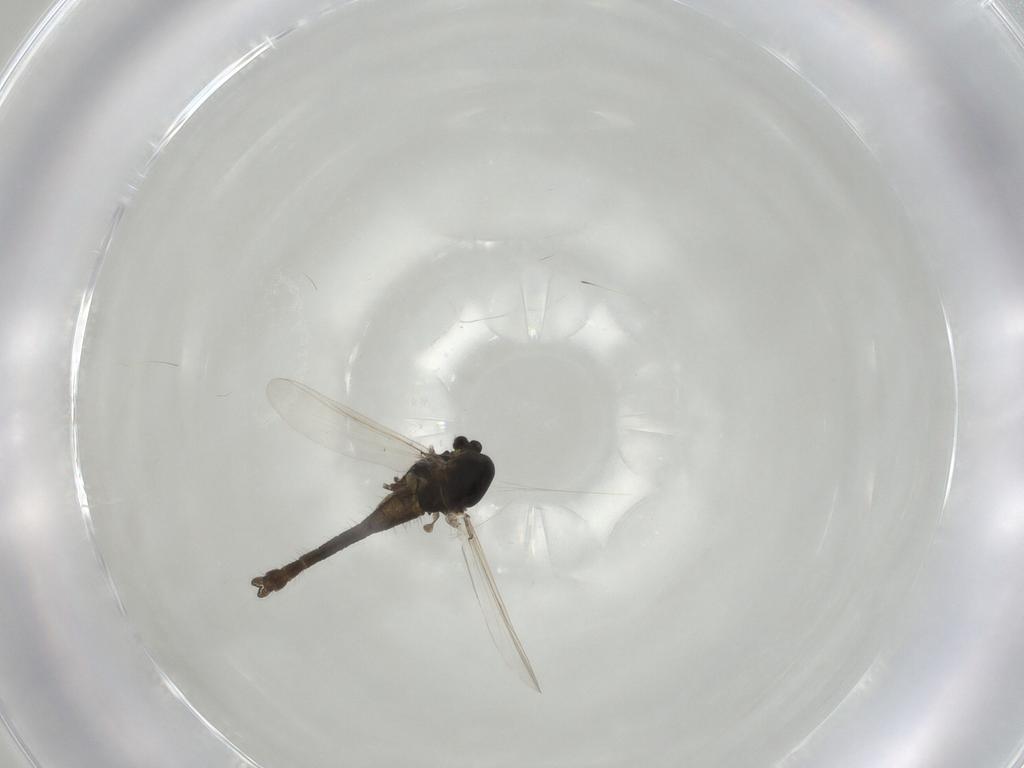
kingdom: Animalia
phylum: Arthropoda
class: Insecta
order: Diptera
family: Chironomidae
